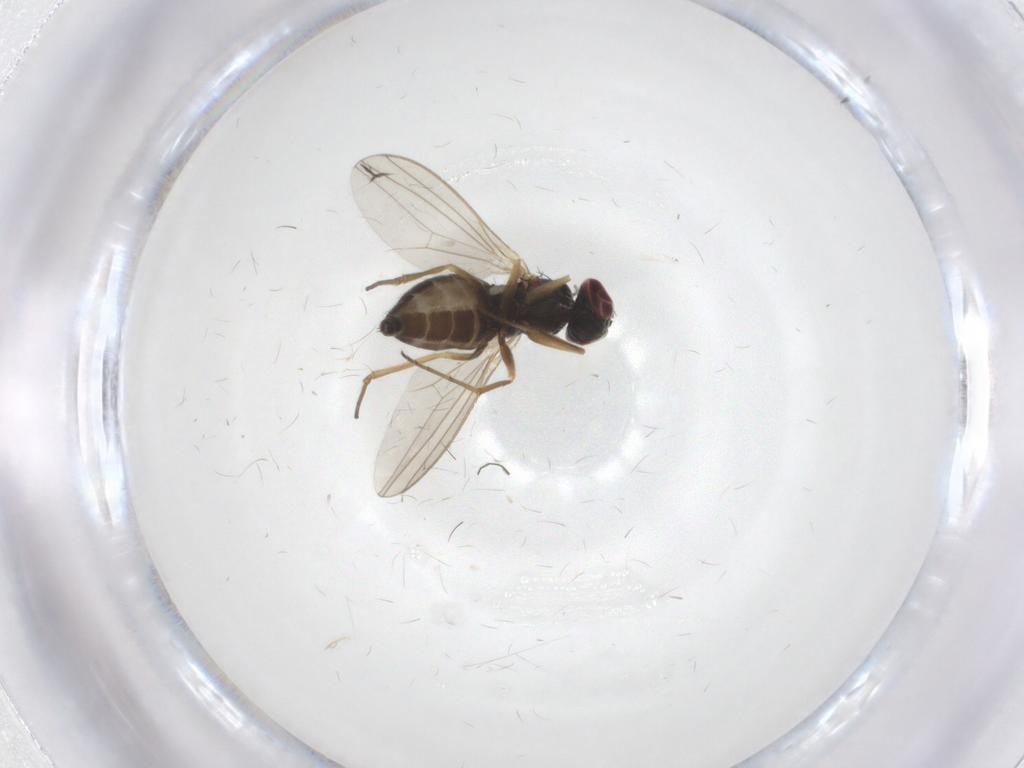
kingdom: Animalia
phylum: Arthropoda
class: Insecta
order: Diptera
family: Dolichopodidae
